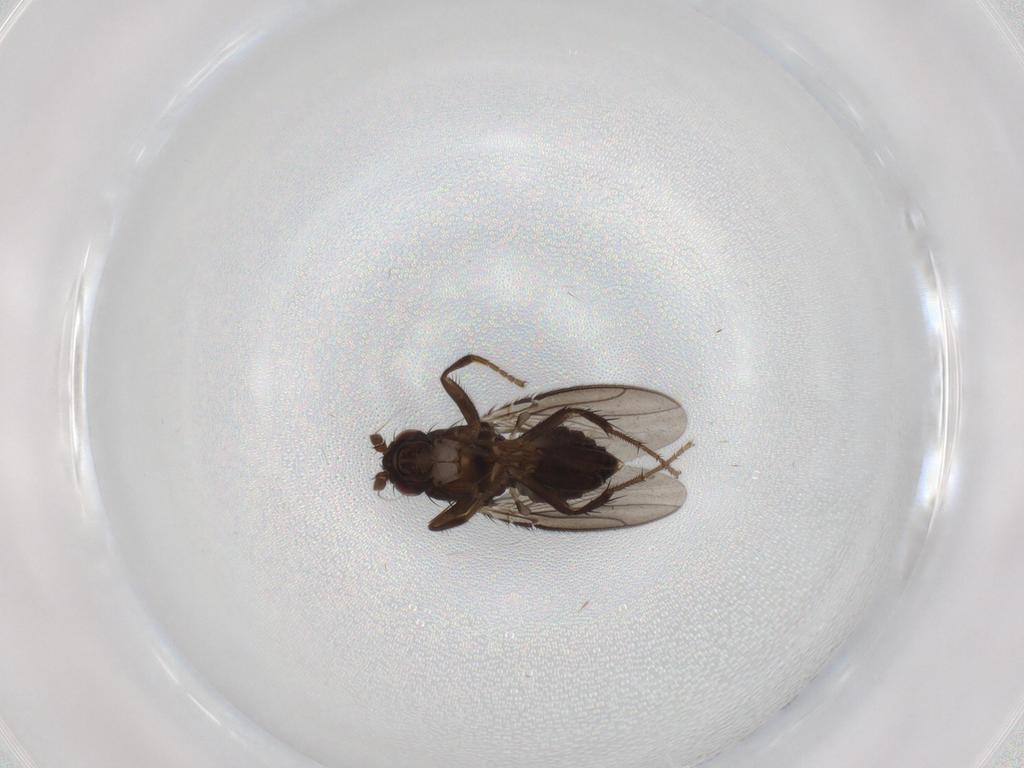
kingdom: Animalia
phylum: Arthropoda
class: Insecta
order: Diptera
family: Sphaeroceridae
